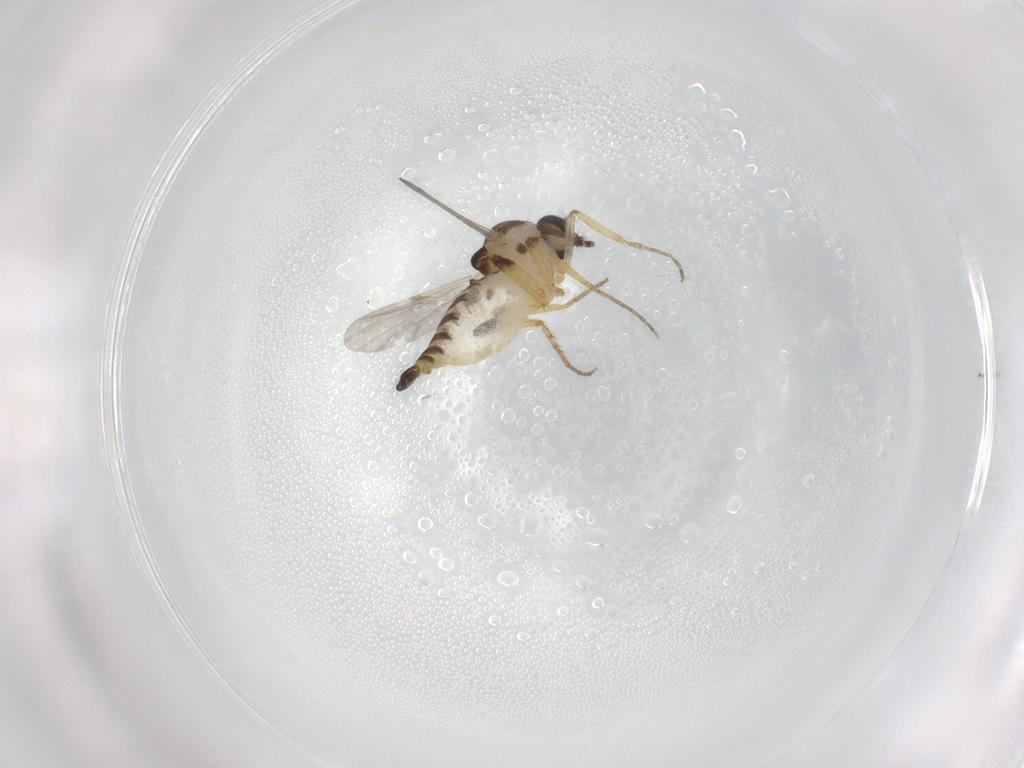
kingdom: Animalia
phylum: Arthropoda
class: Insecta
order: Diptera
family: Ceratopogonidae
